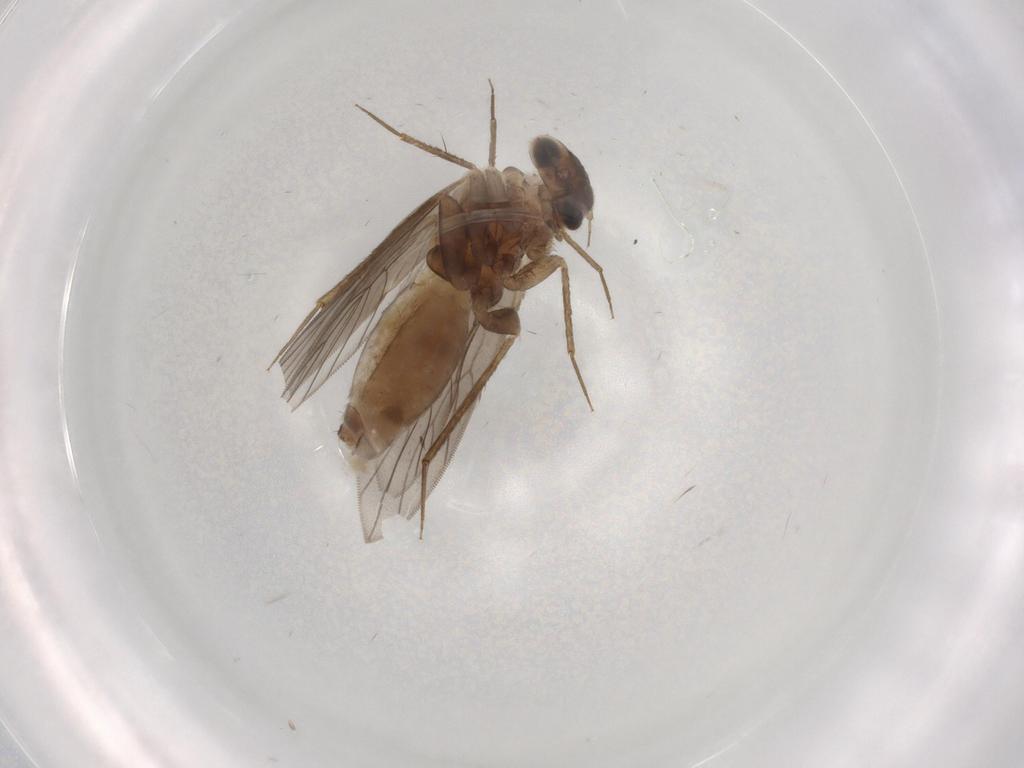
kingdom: Animalia
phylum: Arthropoda
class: Insecta
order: Psocodea
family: Lepidopsocidae
